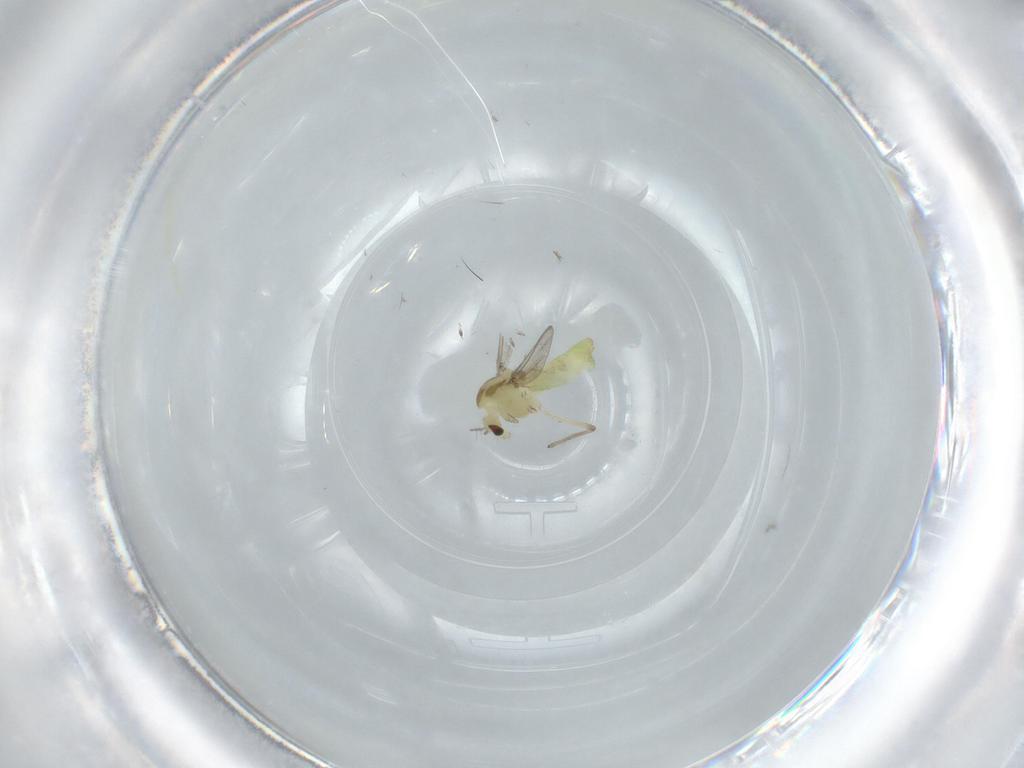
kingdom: Animalia
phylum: Arthropoda
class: Insecta
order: Diptera
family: Chironomidae
